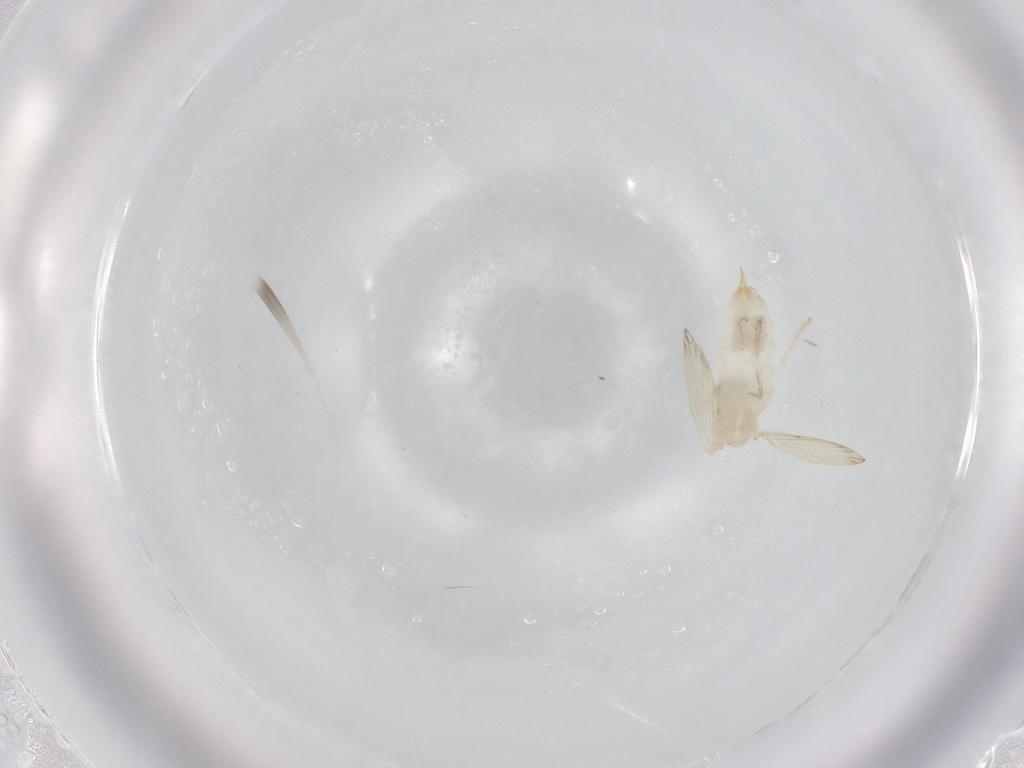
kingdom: Animalia
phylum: Arthropoda
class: Insecta
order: Diptera
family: Psychodidae
